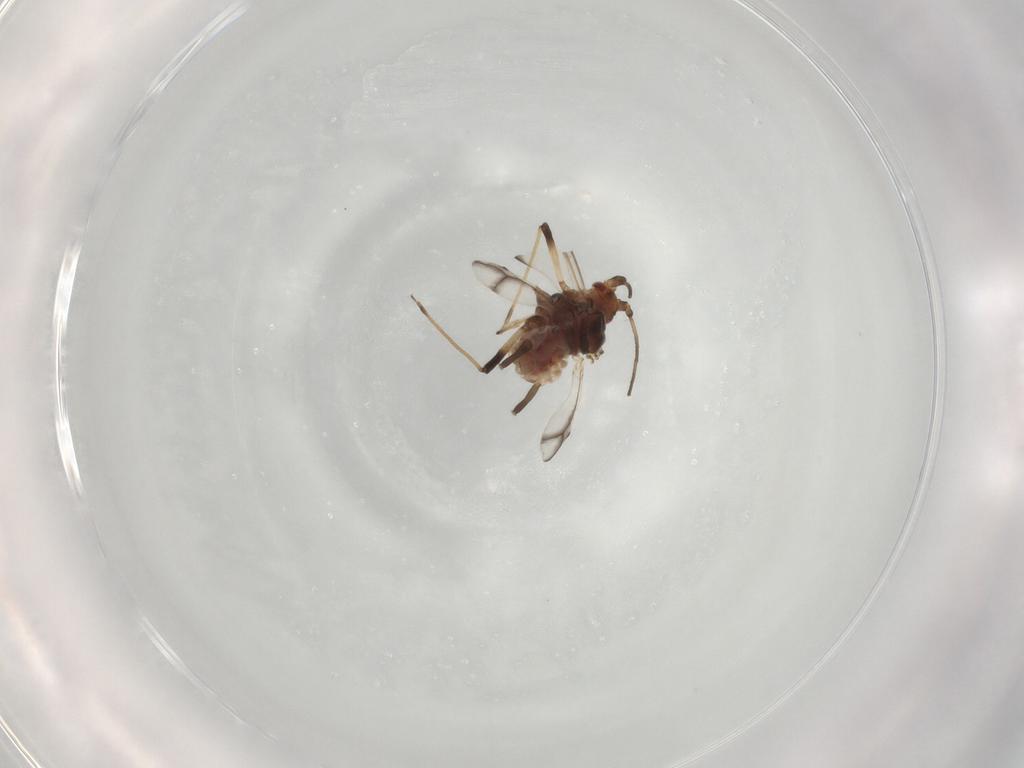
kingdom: Animalia
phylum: Arthropoda
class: Insecta
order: Hemiptera
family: Aphididae
